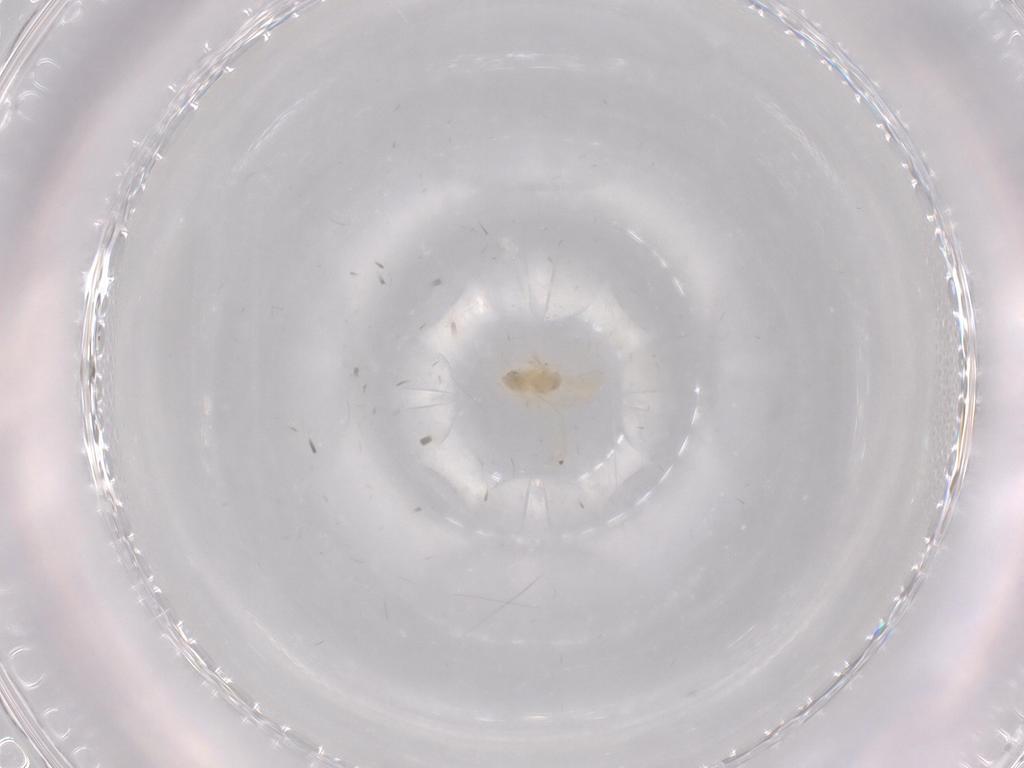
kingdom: Animalia
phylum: Arthropoda
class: Insecta
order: Hemiptera
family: Aleyrodidae
